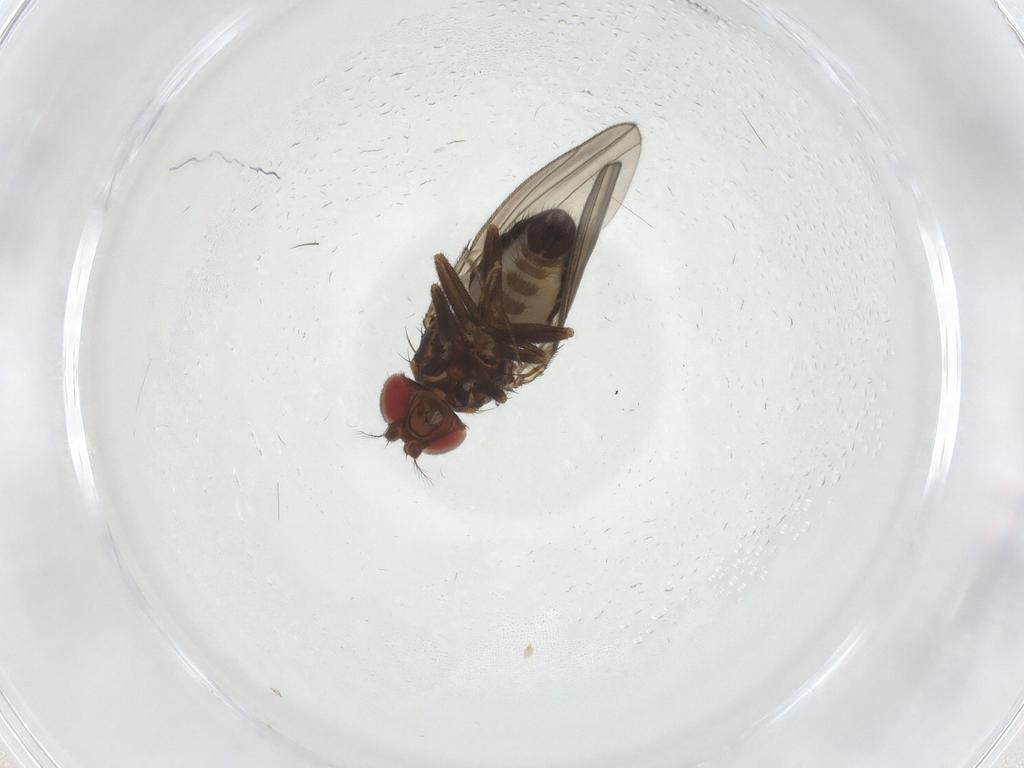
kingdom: Animalia
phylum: Arthropoda
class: Insecta
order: Diptera
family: Drosophilidae
